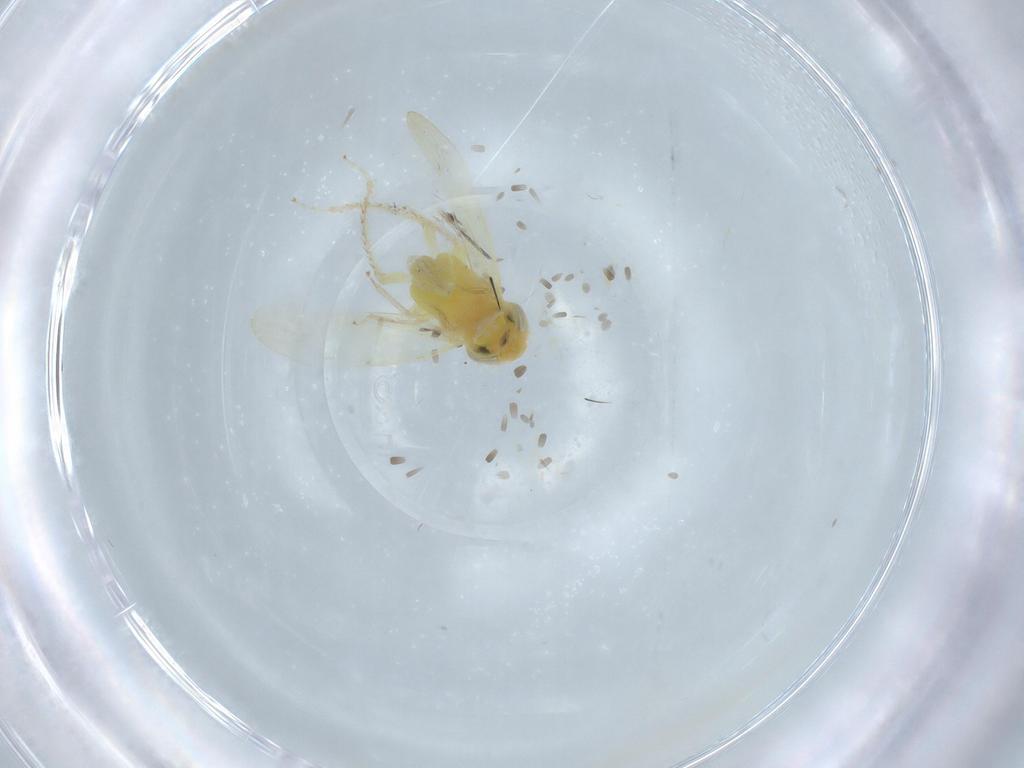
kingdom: Animalia
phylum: Arthropoda
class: Insecta
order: Hemiptera
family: Cicadellidae
